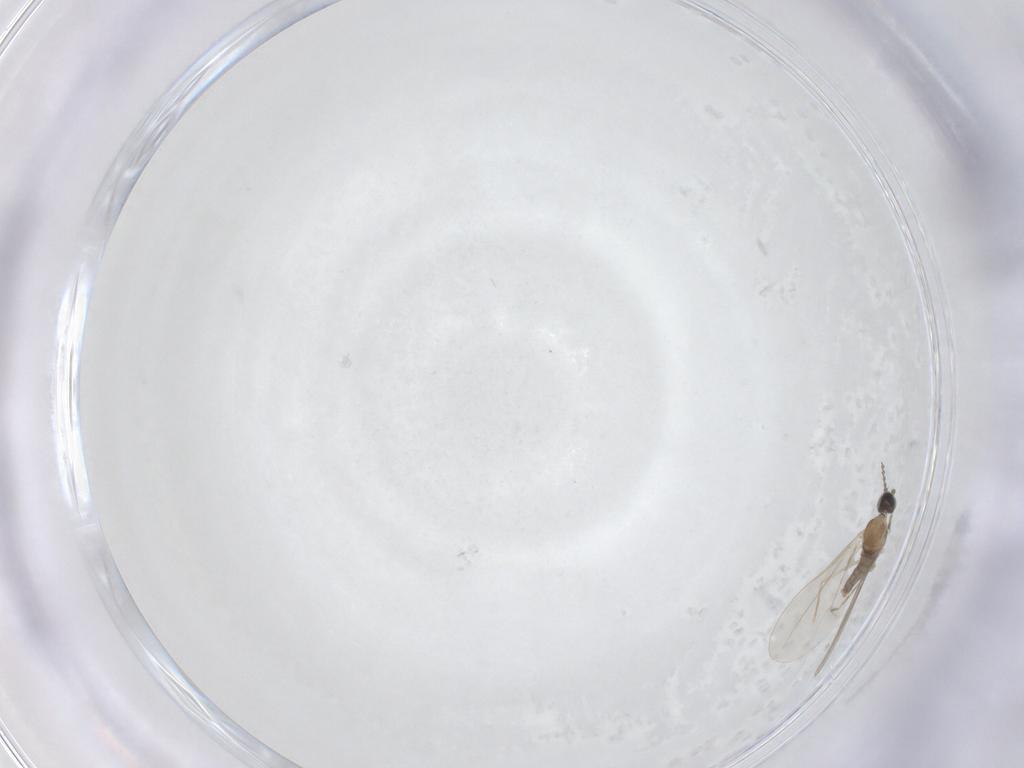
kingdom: Animalia
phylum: Arthropoda
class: Insecta
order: Diptera
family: Cecidomyiidae
